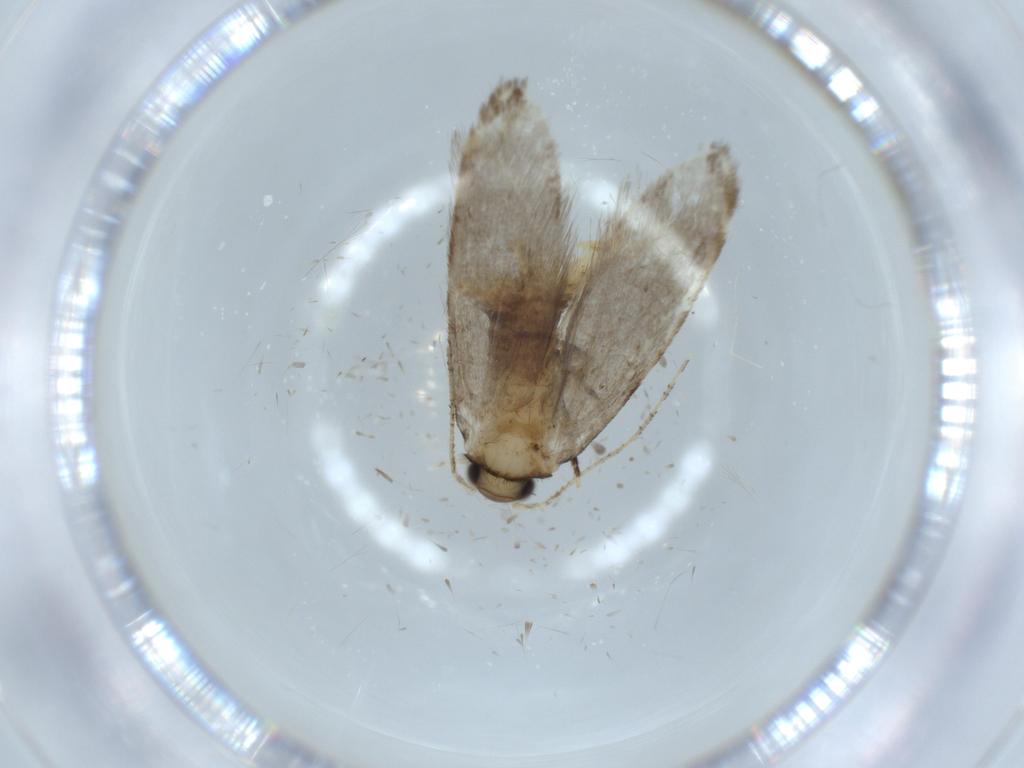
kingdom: Animalia
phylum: Arthropoda
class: Insecta
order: Lepidoptera
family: Tineidae
